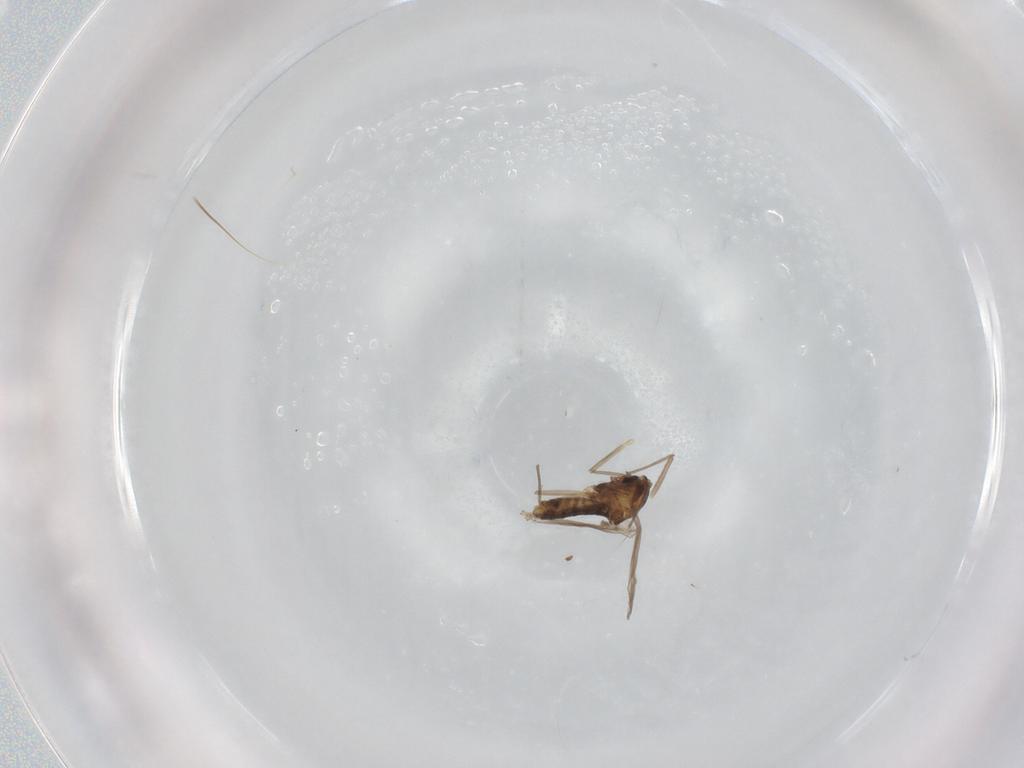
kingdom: Animalia
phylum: Arthropoda
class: Insecta
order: Diptera
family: Chironomidae
